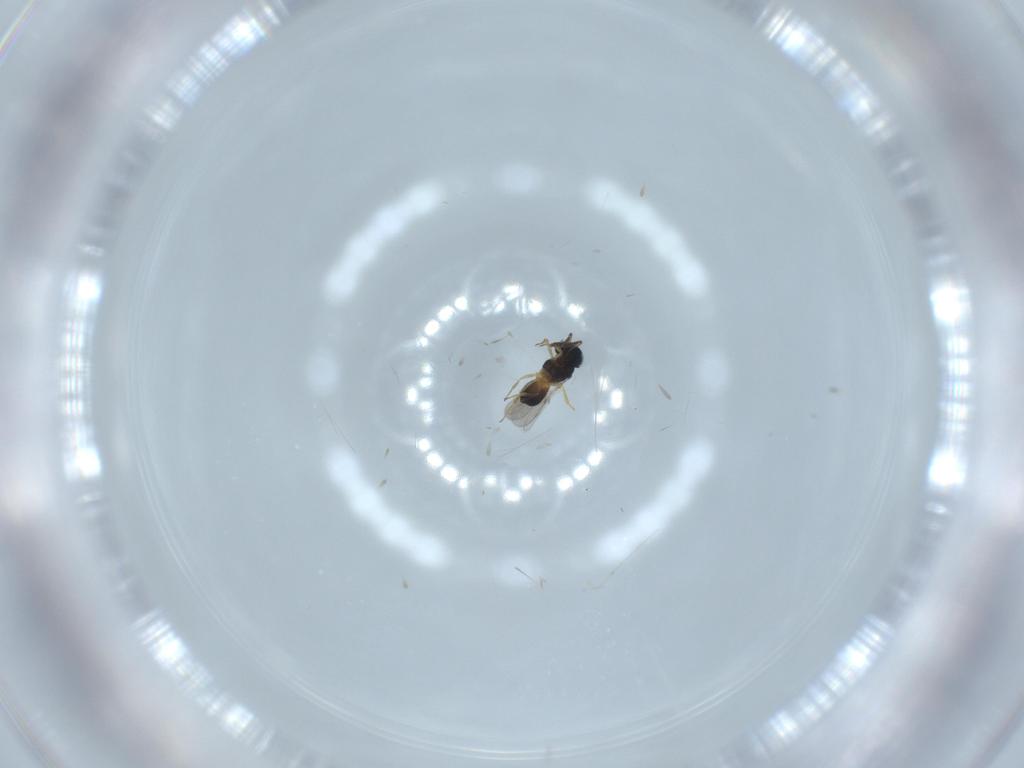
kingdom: Animalia
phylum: Arthropoda
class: Insecta
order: Hymenoptera
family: Scelionidae
